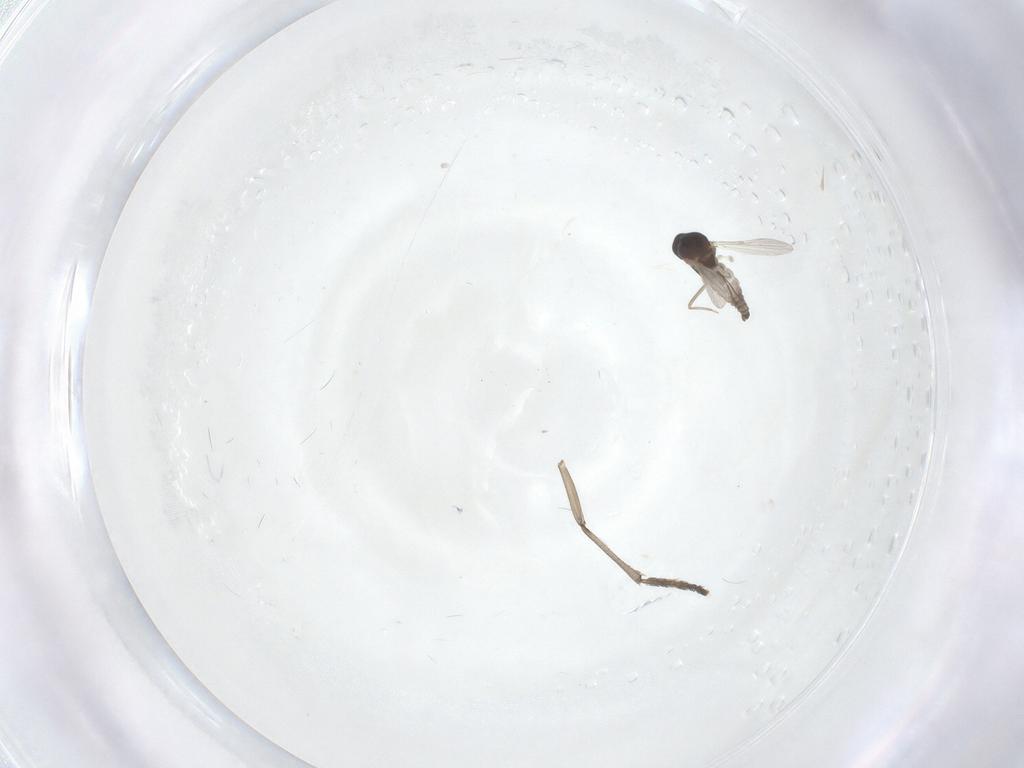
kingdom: Animalia
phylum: Arthropoda
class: Insecta
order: Diptera
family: Psychodidae
